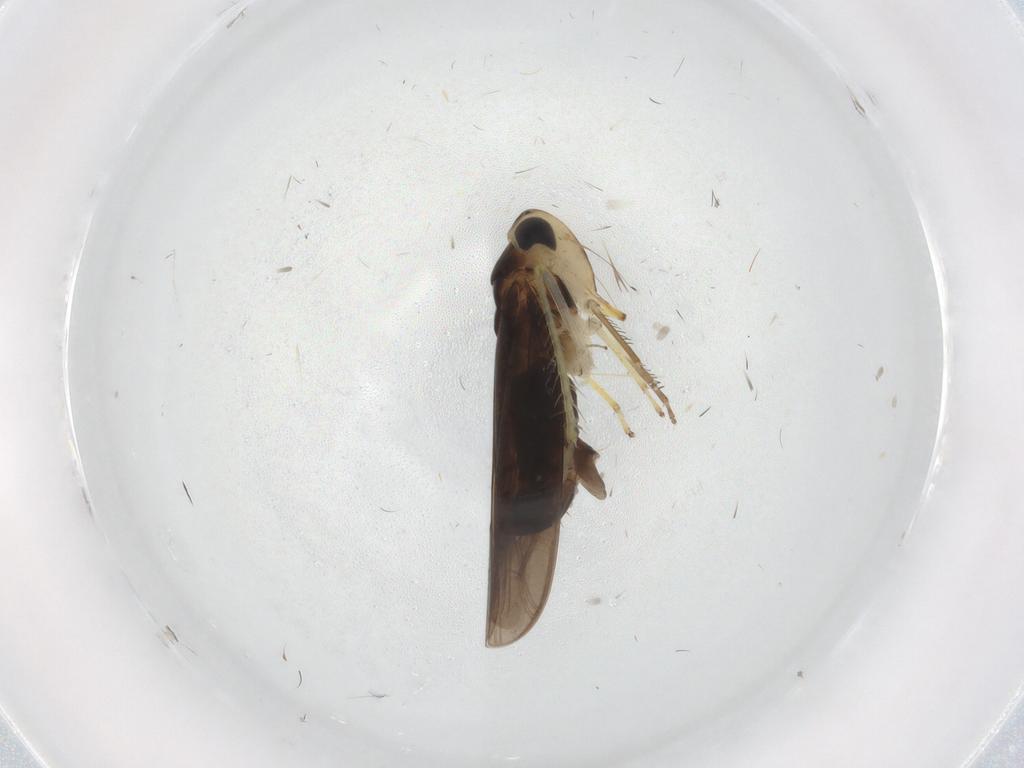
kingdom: Animalia
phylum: Arthropoda
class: Insecta
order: Hemiptera
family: Cicadellidae
